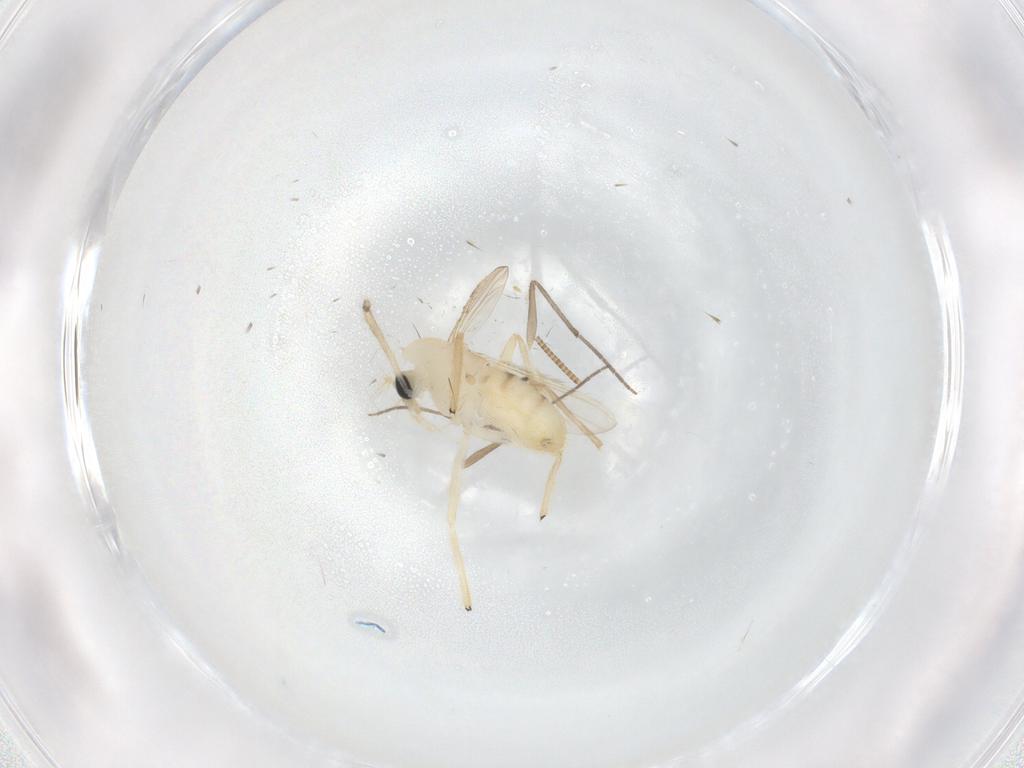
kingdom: Animalia
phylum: Arthropoda
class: Insecta
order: Diptera
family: Chironomidae
